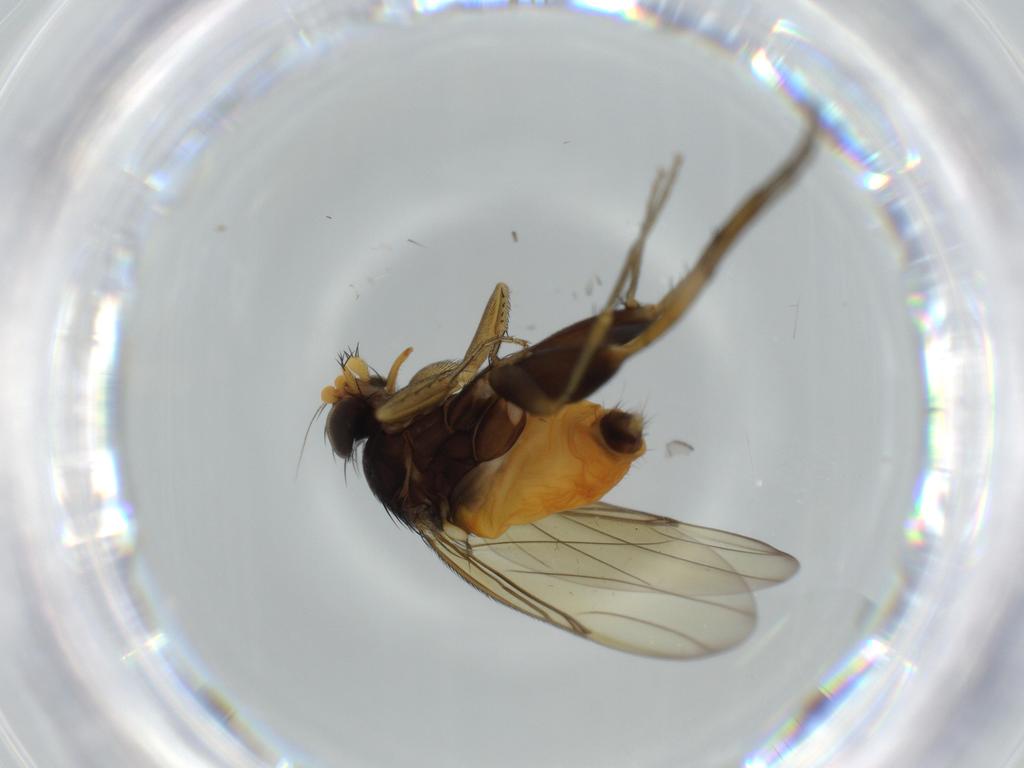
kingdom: Animalia
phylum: Arthropoda
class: Insecta
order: Diptera
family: Phoridae
